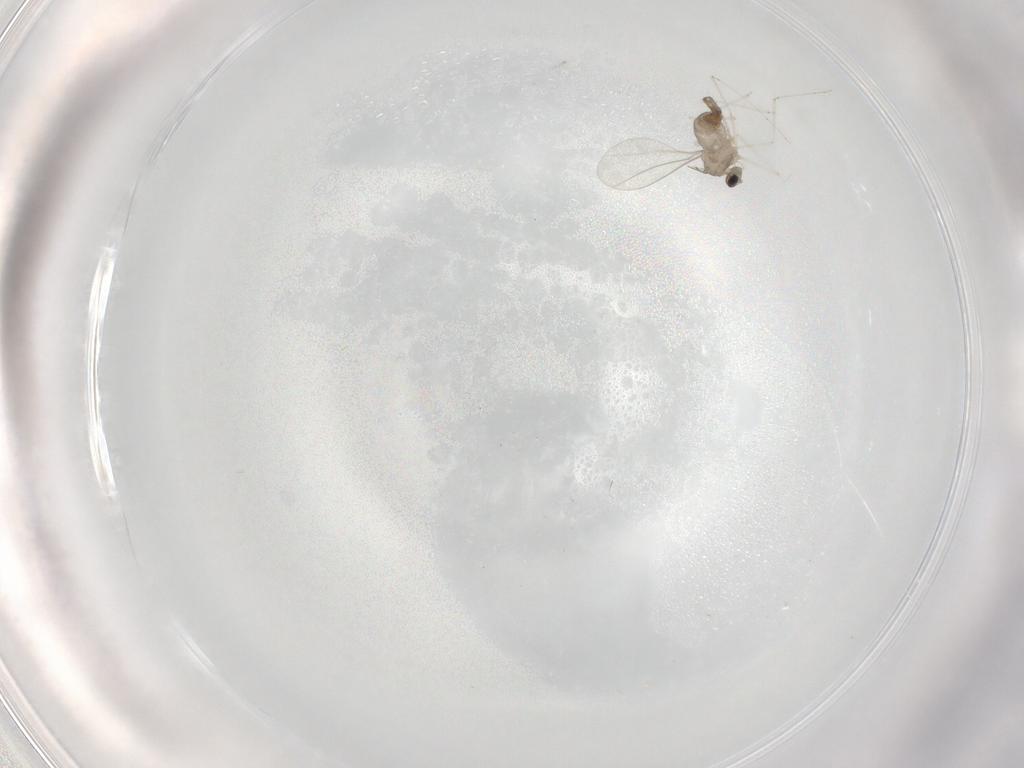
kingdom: Animalia
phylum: Arthropoda
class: Insecta
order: Diptera
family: Cecidomyiidae
